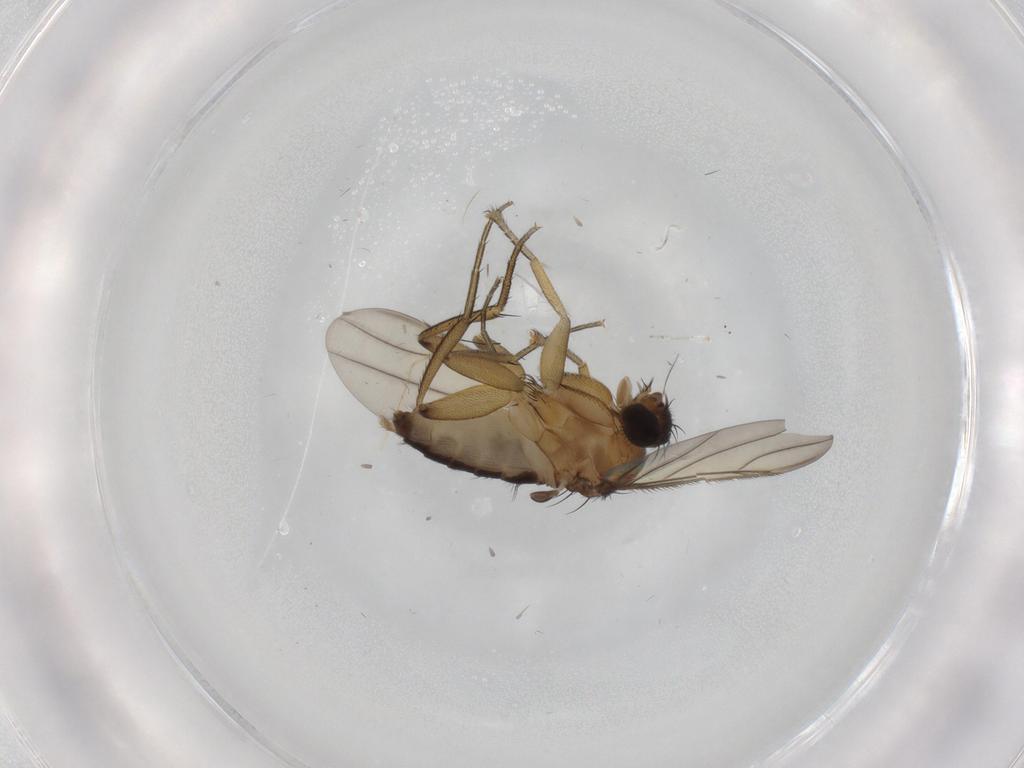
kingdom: Animalia
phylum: Arthropoda
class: Insecta
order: Diptera
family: Phoridae
